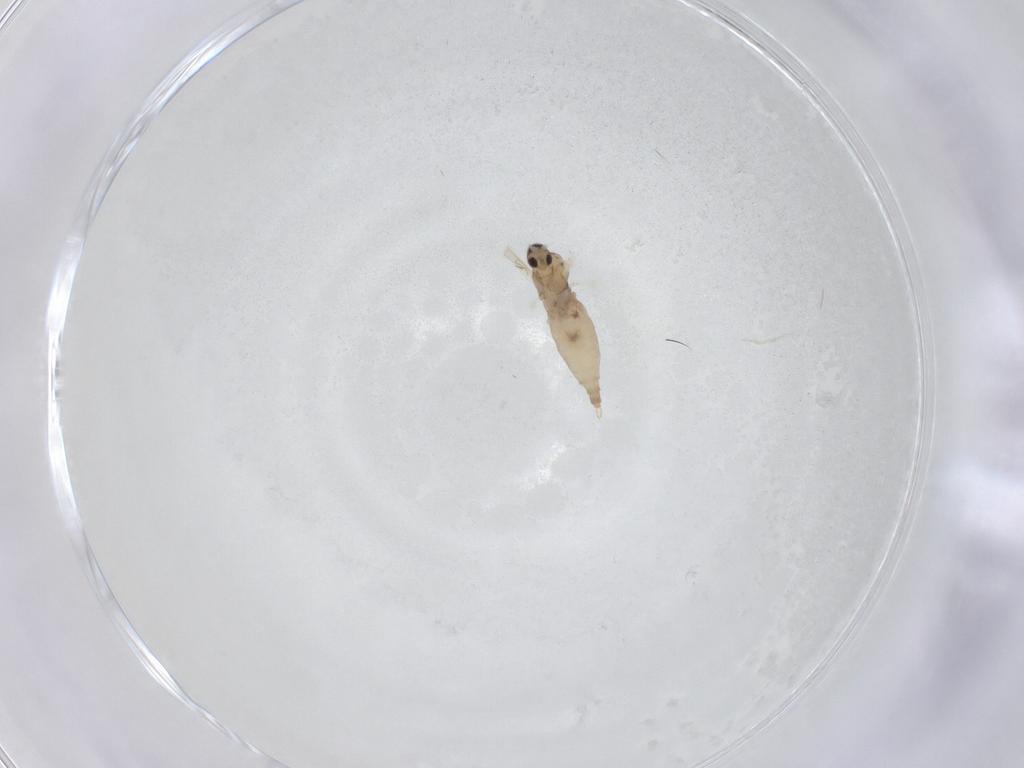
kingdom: Animalia
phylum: Arthropoda
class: Insecta
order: Diptera
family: Cecidomyiidae
